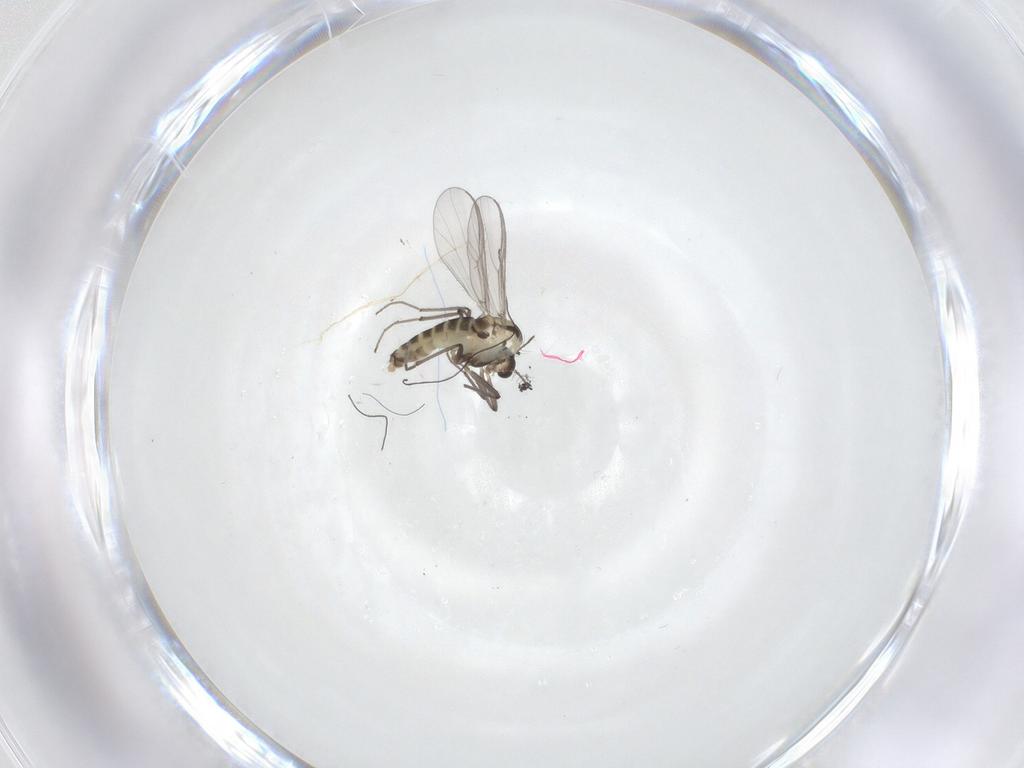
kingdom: Animalia
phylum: Arthropoda
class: Insecta
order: Diptera
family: Chironomidae
